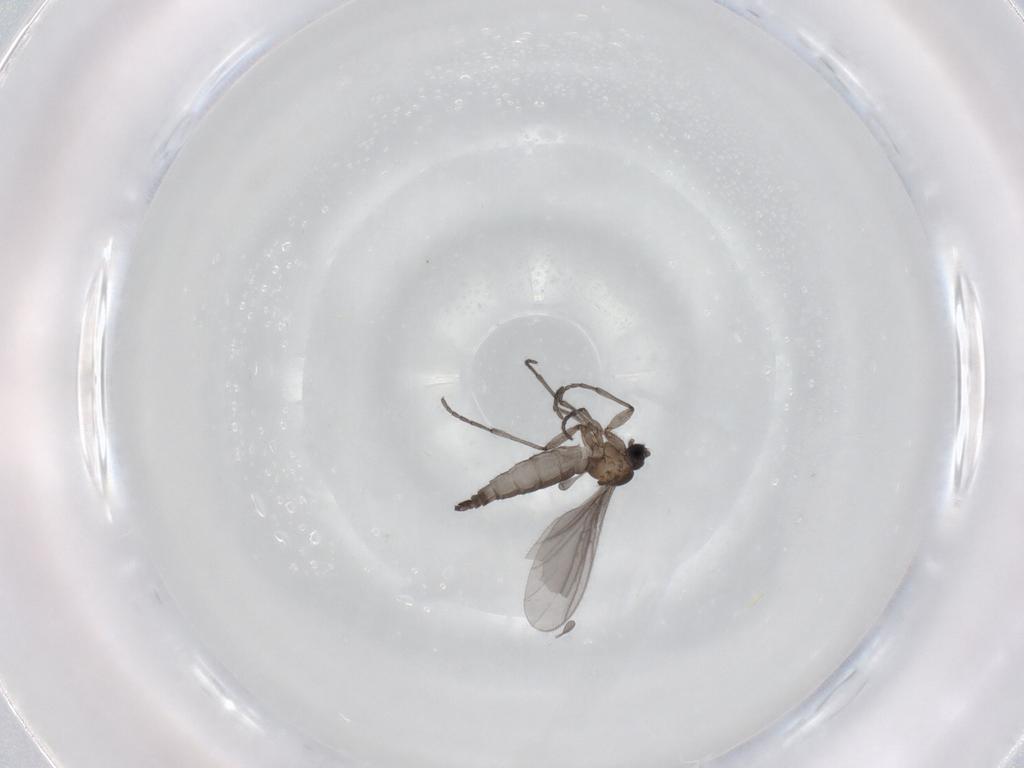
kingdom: Animalia
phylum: Arthropoda
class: Insecta
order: Diptera
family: Sciaridae
